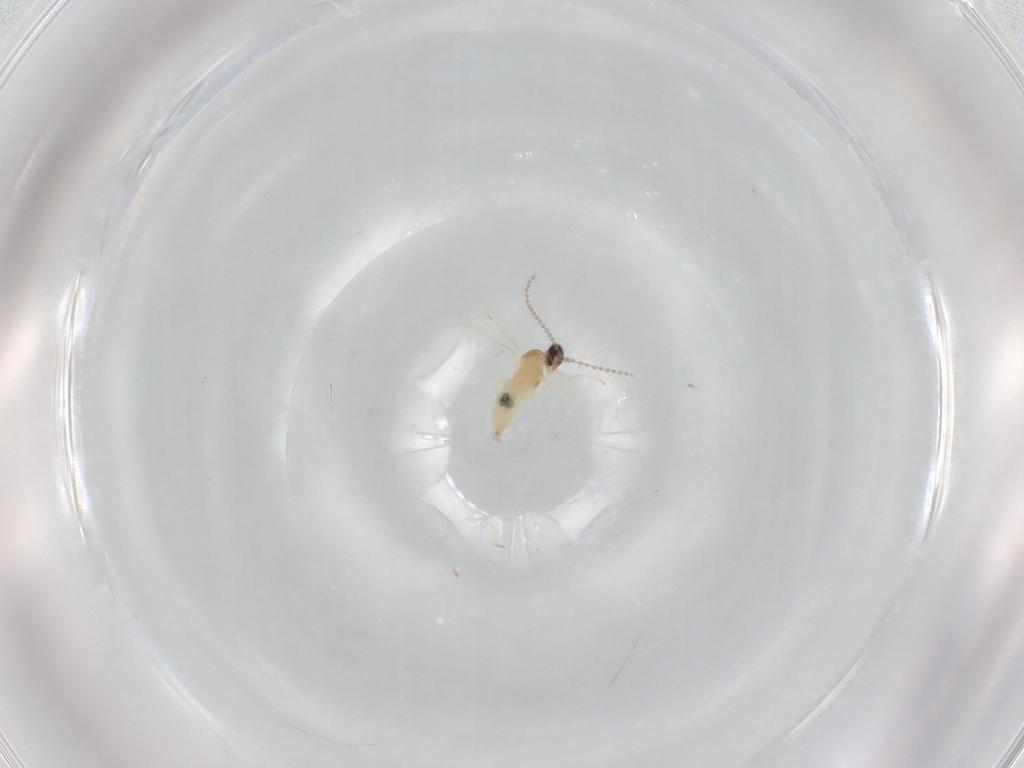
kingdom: Animalia
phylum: Arthropoda
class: Insecta
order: Diptera
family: Cecidomyiidae
